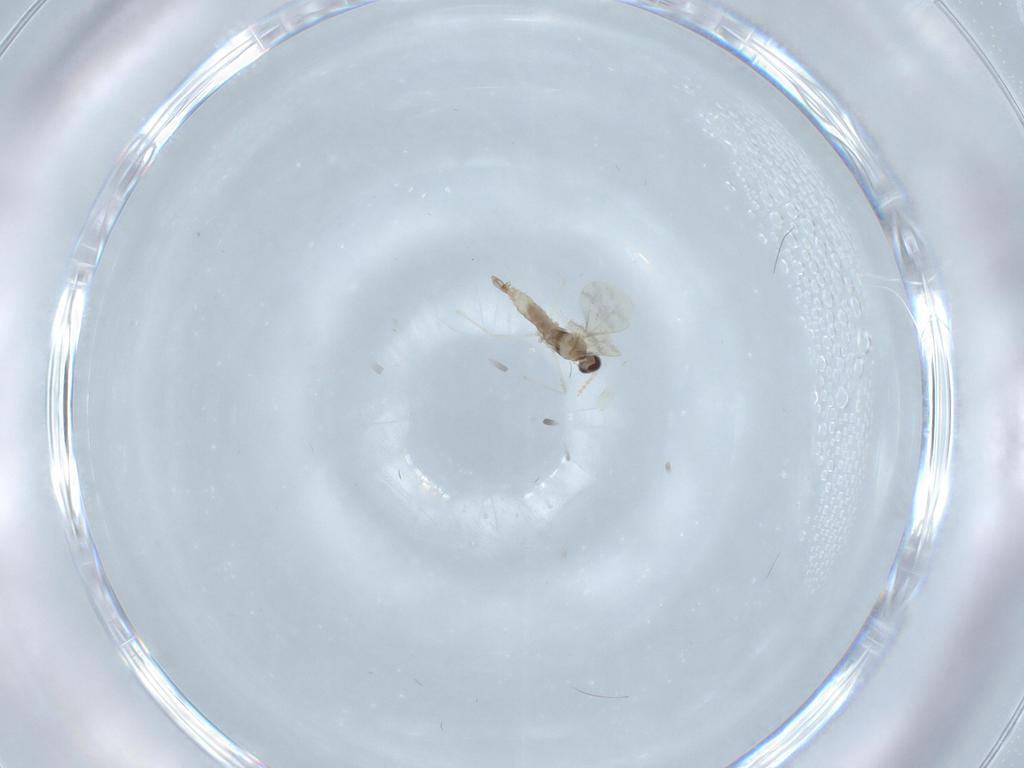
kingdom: Animalia
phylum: Arthropoda
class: Insecta
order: Diptera
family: Cecidomyiidae
